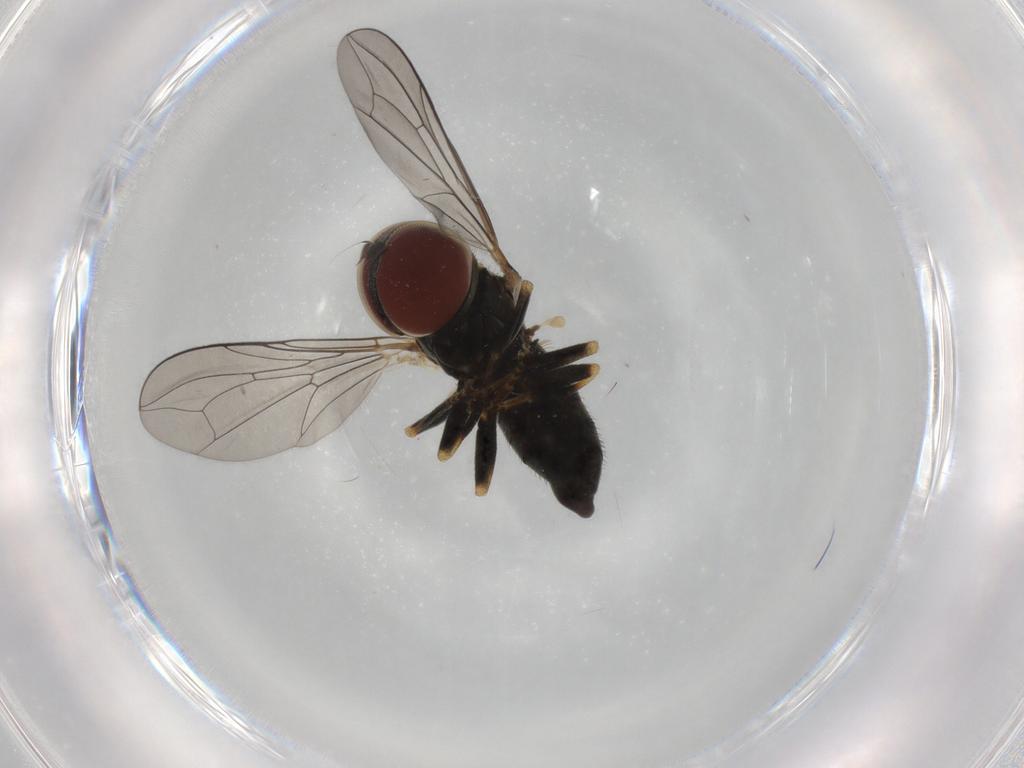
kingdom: Animalia
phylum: Arthropoda
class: Insecta
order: Diptera
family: Pipunculidae
